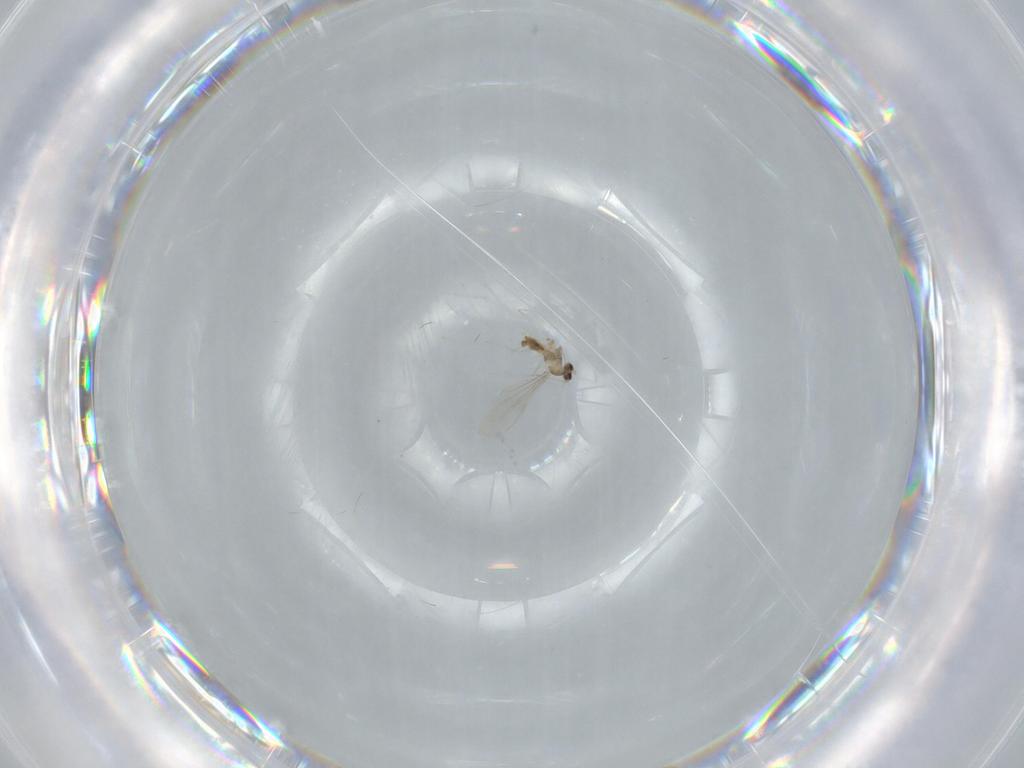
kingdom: Animalia
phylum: Arthropoda
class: Insecta
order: Diptera
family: Cecidomyiidae
